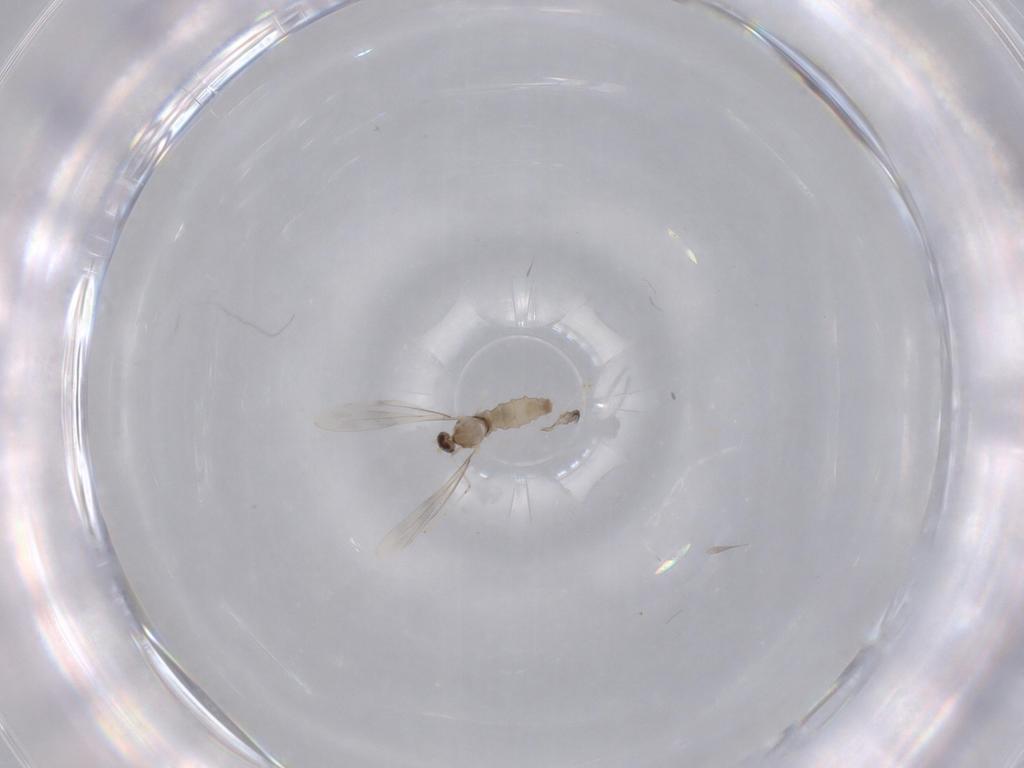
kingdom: Animalia
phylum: Arthropoda
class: Insecta
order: Diptera
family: Cecidomyiidae
